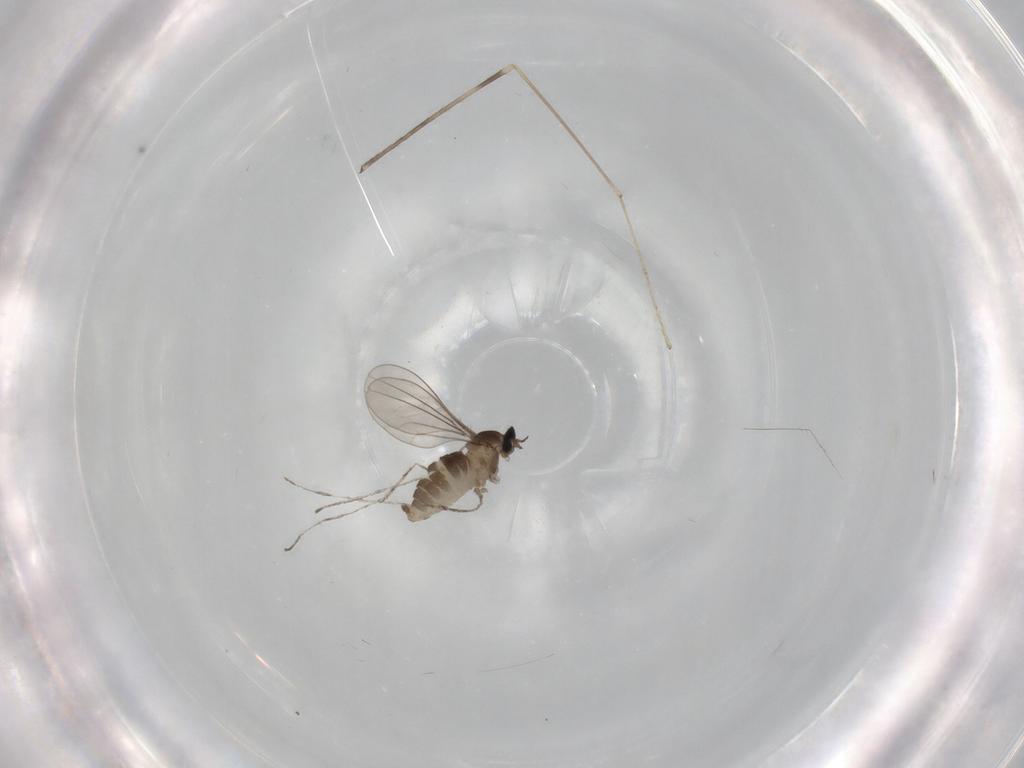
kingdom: Animalia
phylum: Arthropoda
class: Insecta
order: Diptera
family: Cecidomyiidae
